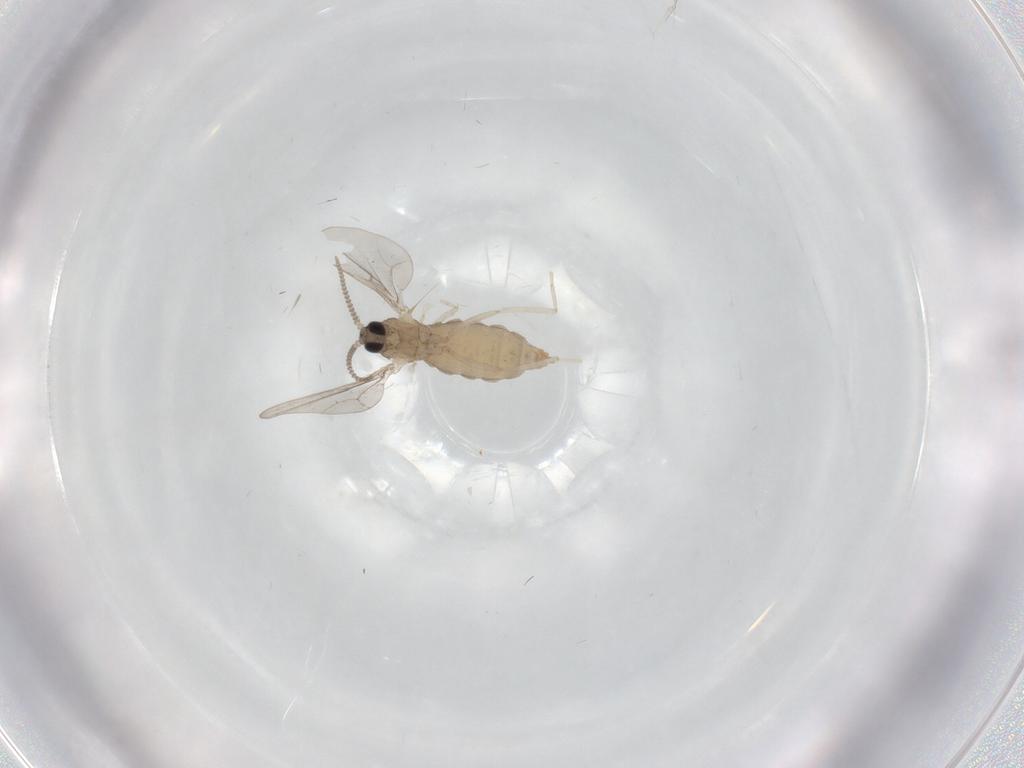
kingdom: Animalia
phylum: Arthropoda
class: Insecta
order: Diptera
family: Cecidomyiidae
